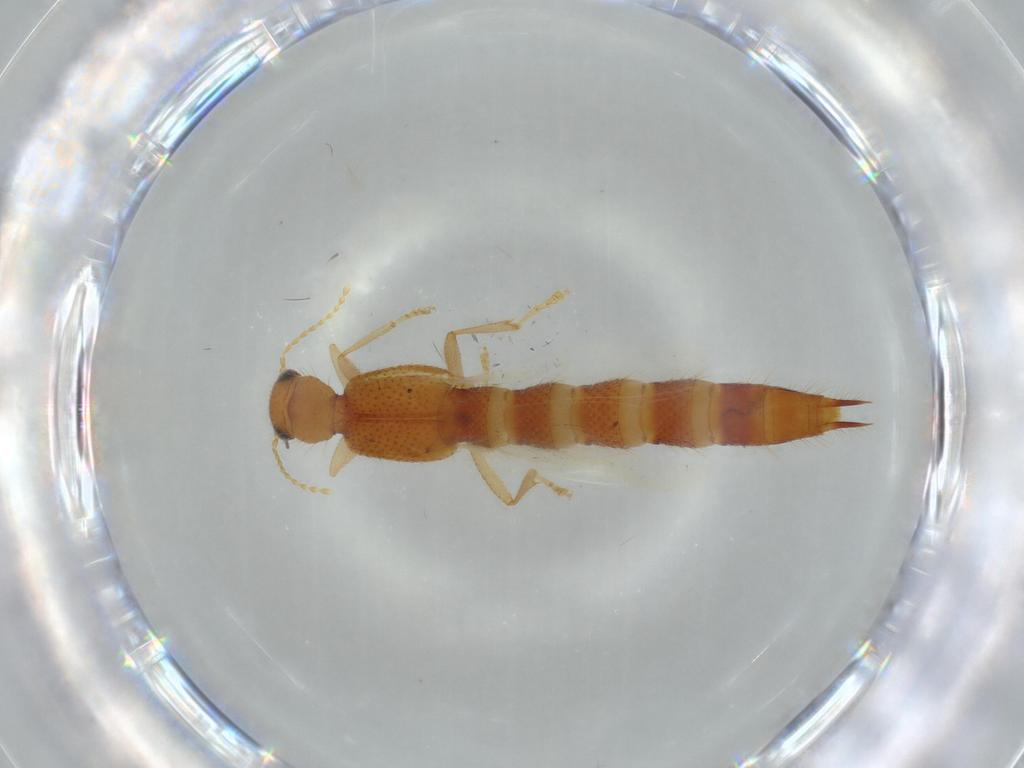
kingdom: Animalia
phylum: Arthropoda
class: Insecta
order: Coleoptera
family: Staphylinidae
